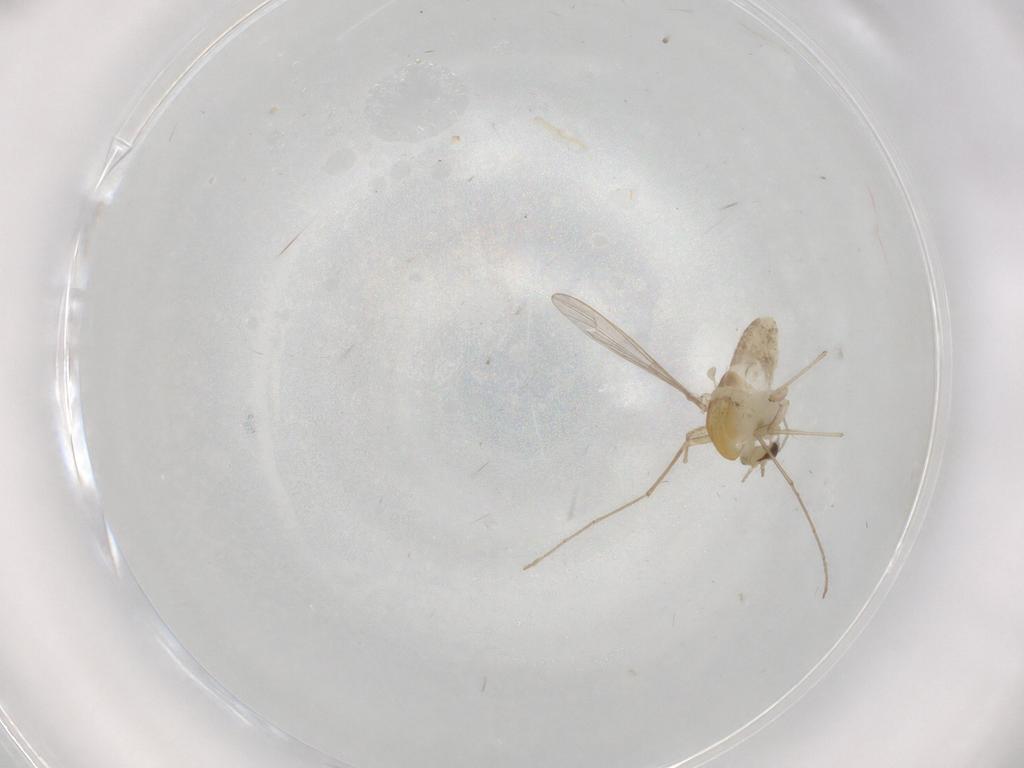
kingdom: Animalia
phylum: Arthropoda
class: Insecta
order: Diptera
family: Chironomidae
